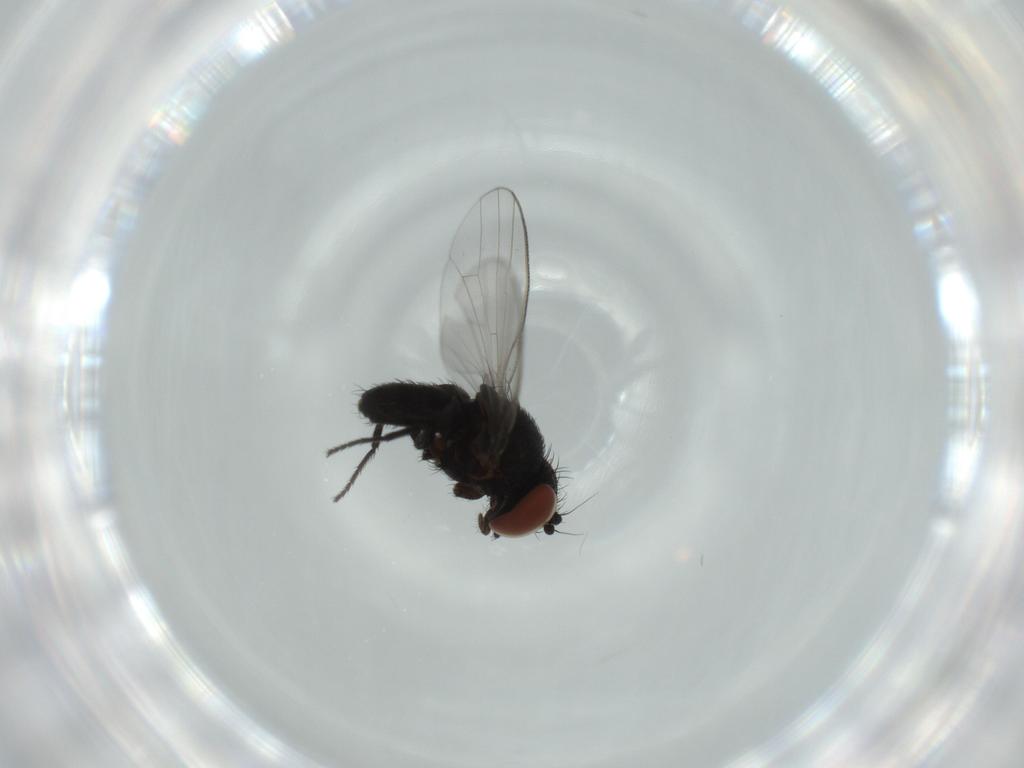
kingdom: Animalia
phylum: Arthropoda
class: Insecta
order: Diptera
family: Milichiidae
